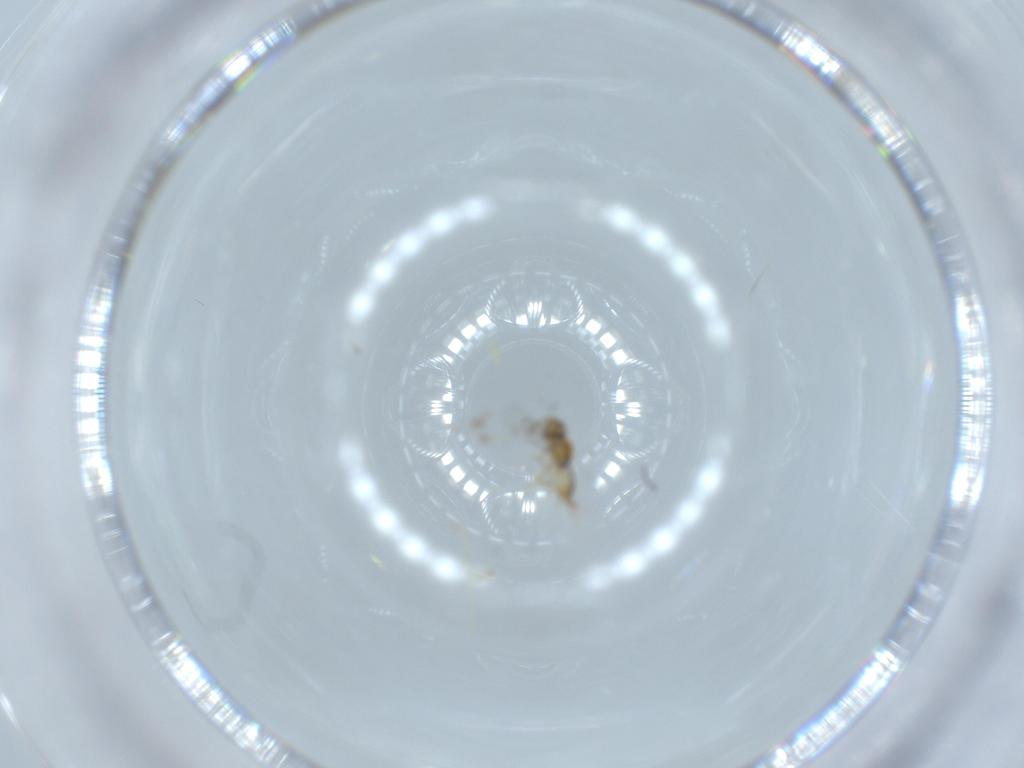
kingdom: Animalia
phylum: Arthropoda
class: Insecta
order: Hymenoptera
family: Encyrtidae
